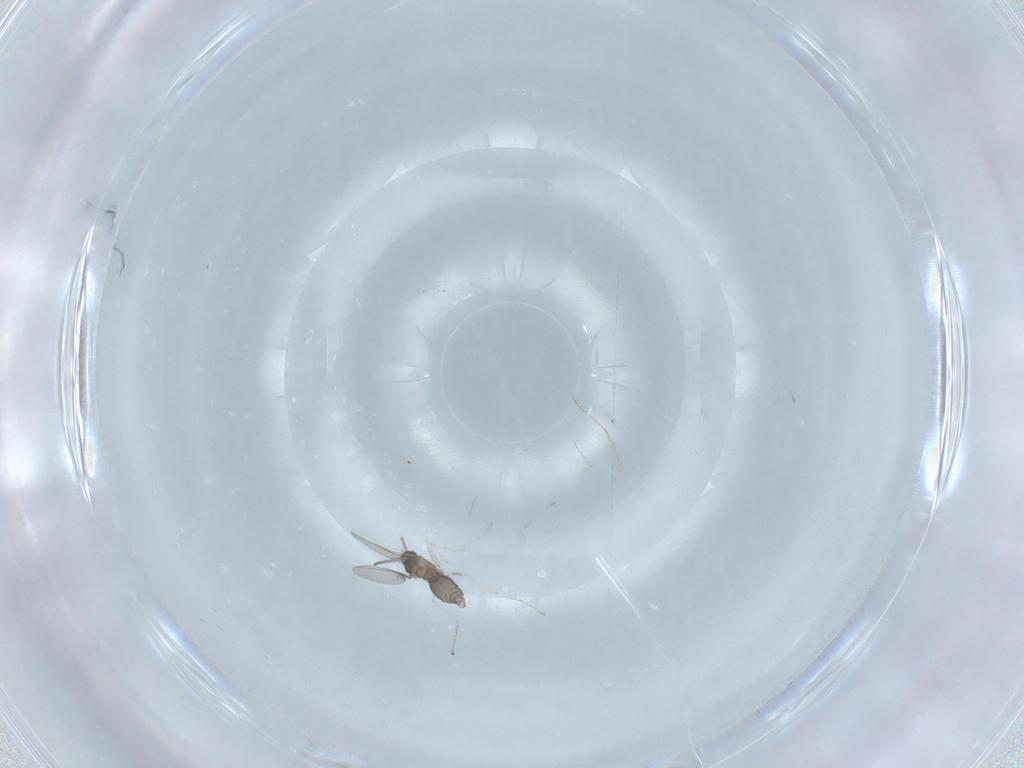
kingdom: Animalia
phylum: Arthropoda
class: Insecta
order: Diptera
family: Cecidomyiidae
